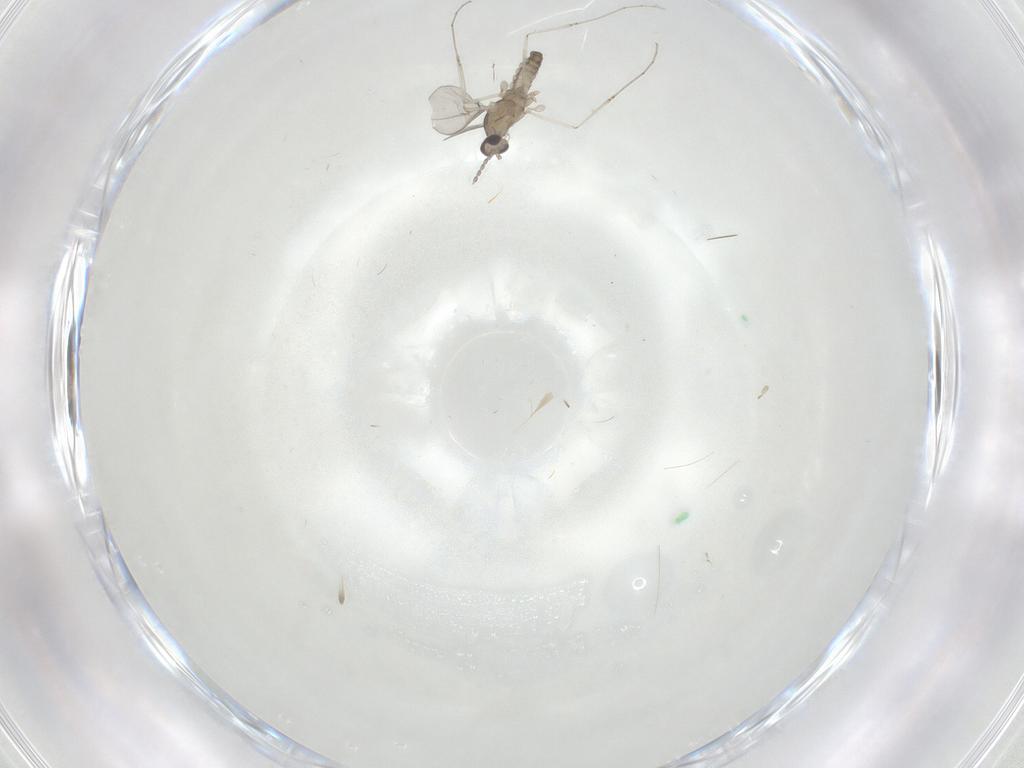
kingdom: Animalia
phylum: Arthropoda
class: Insecta
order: Diptera
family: Cecidomyiidae
